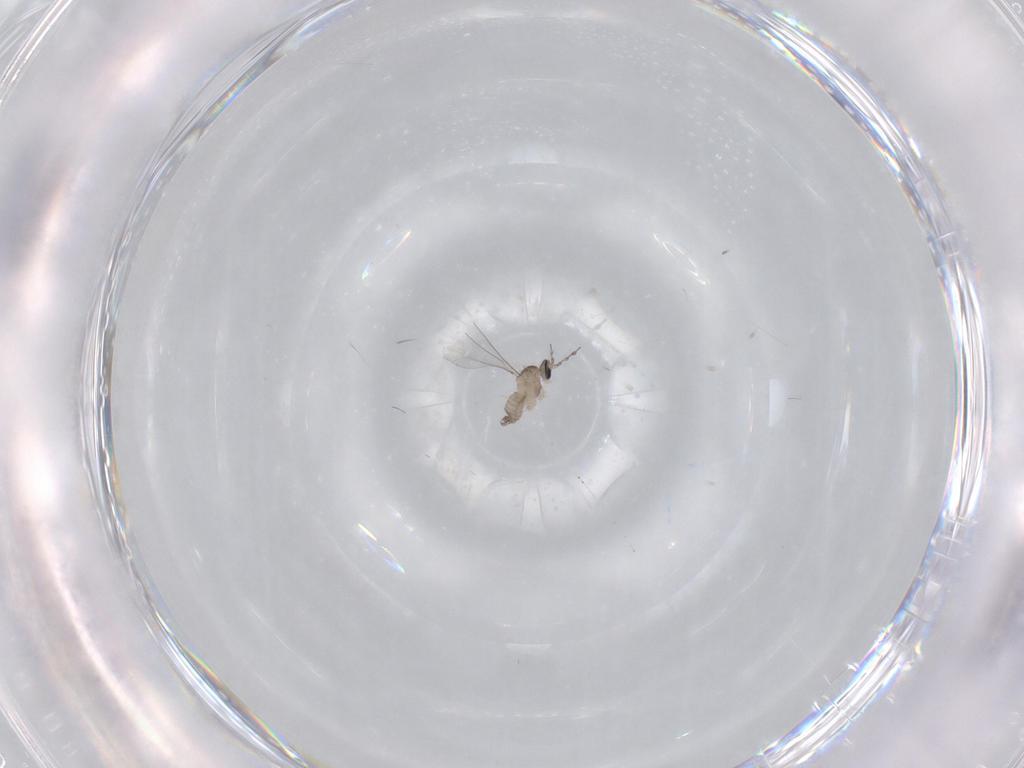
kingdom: Animalia
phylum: Arthropoda
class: Insecta
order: Diptera
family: Cecidomyiidae
